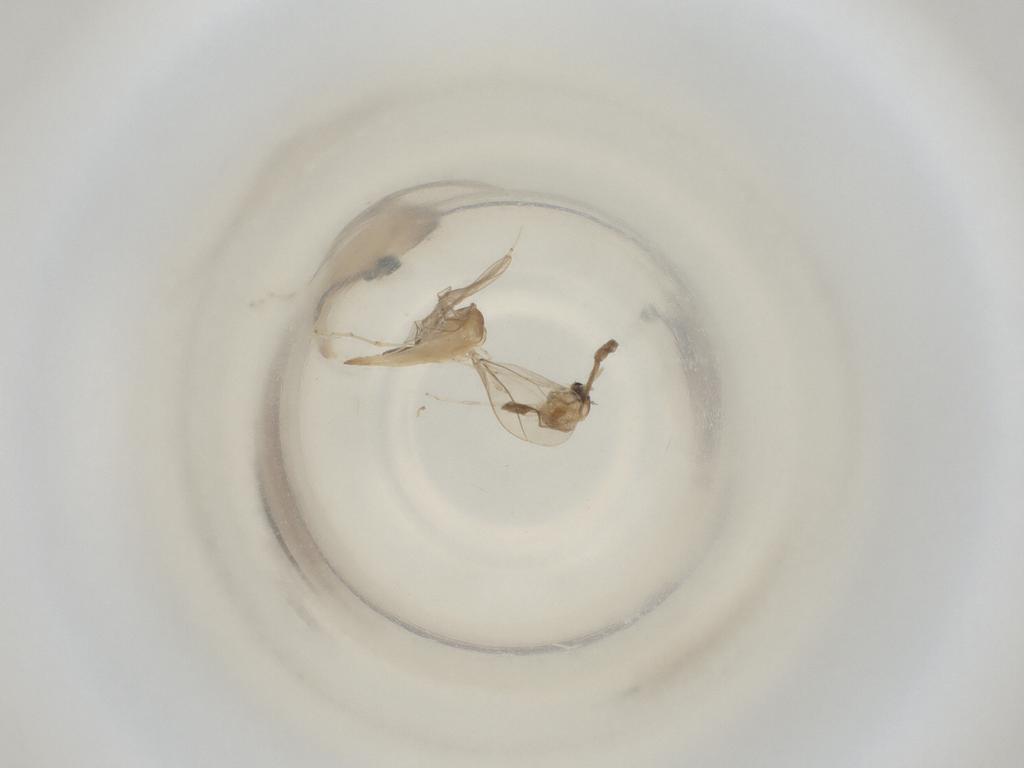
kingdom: Animalia
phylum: Arthropoda
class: Insecta
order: Diptera
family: Cecidomyiidae
